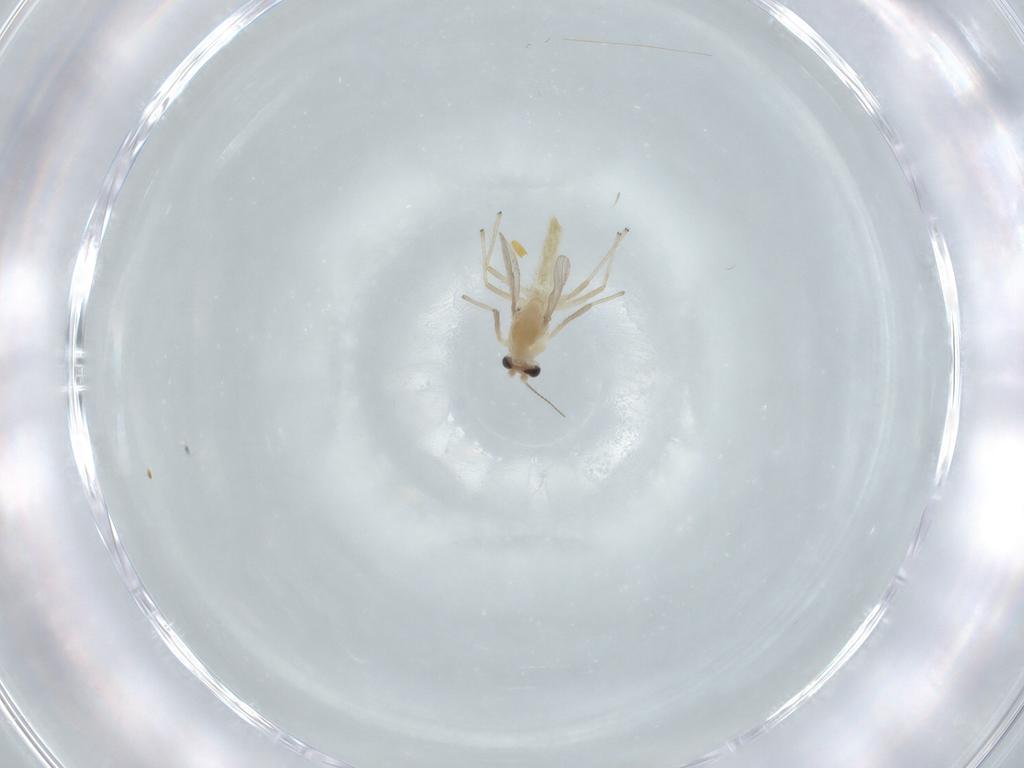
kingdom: Animalia
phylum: Arthropoda
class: Insecta
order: Diptera
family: Chironomidae
